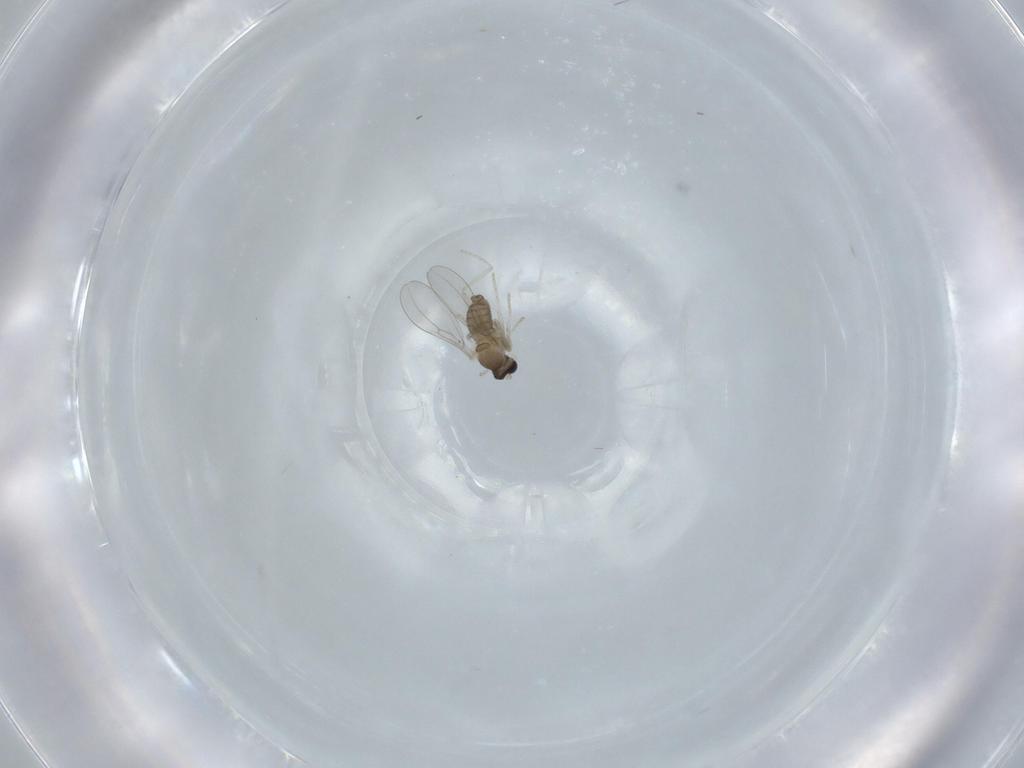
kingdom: Animalia
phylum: Arthropoda
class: Insecta
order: Diptera
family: Cecidomyiidae
